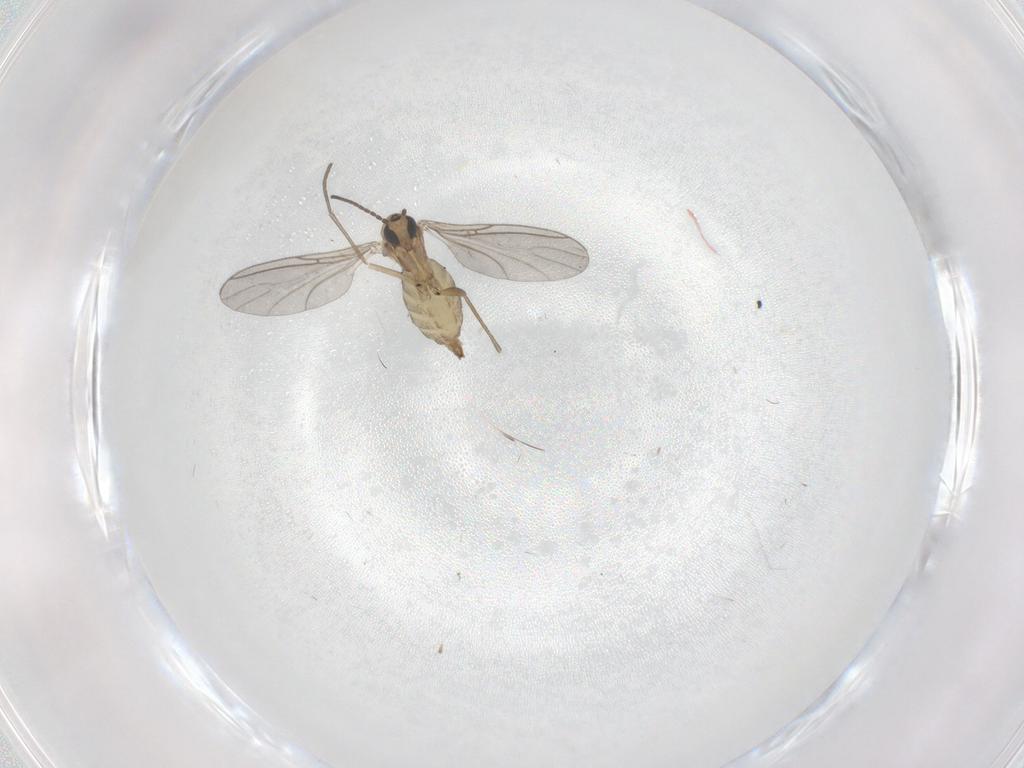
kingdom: Animalia
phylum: Arthropoda
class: Insecta
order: Diptera
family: Sciaridae
